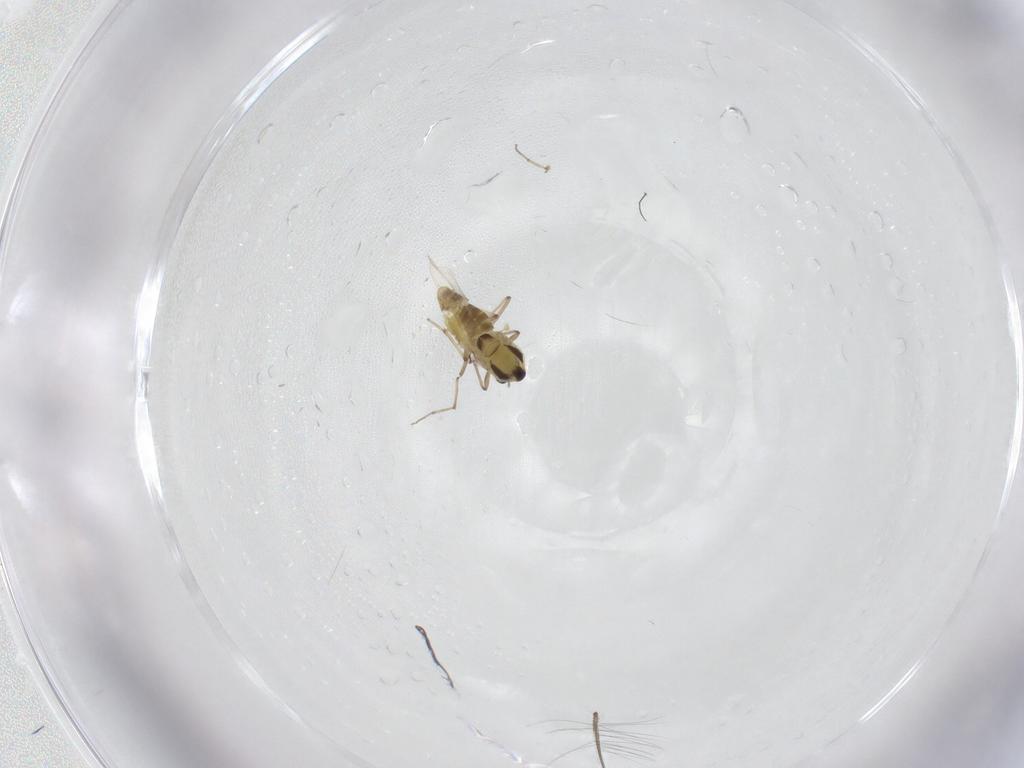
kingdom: Animalia
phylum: Arthropoda
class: Insecta
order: Diptera
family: Chironomidae
